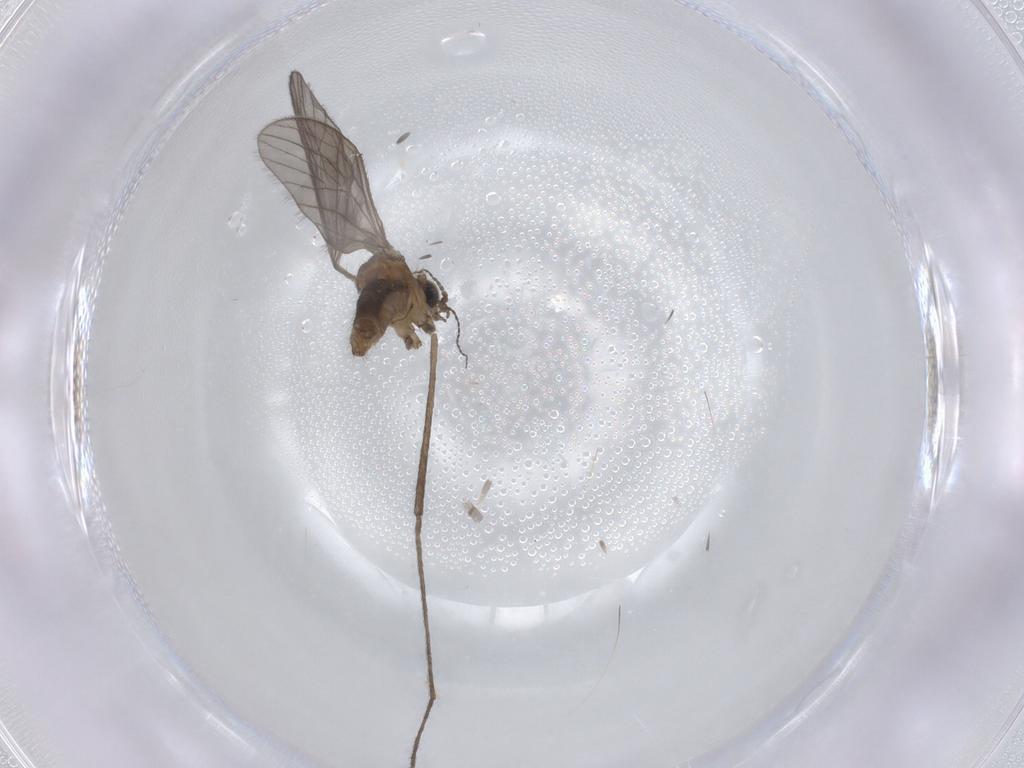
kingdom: Animalia
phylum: Arthropoda
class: Insecta
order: Diptera
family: Limoniidae
